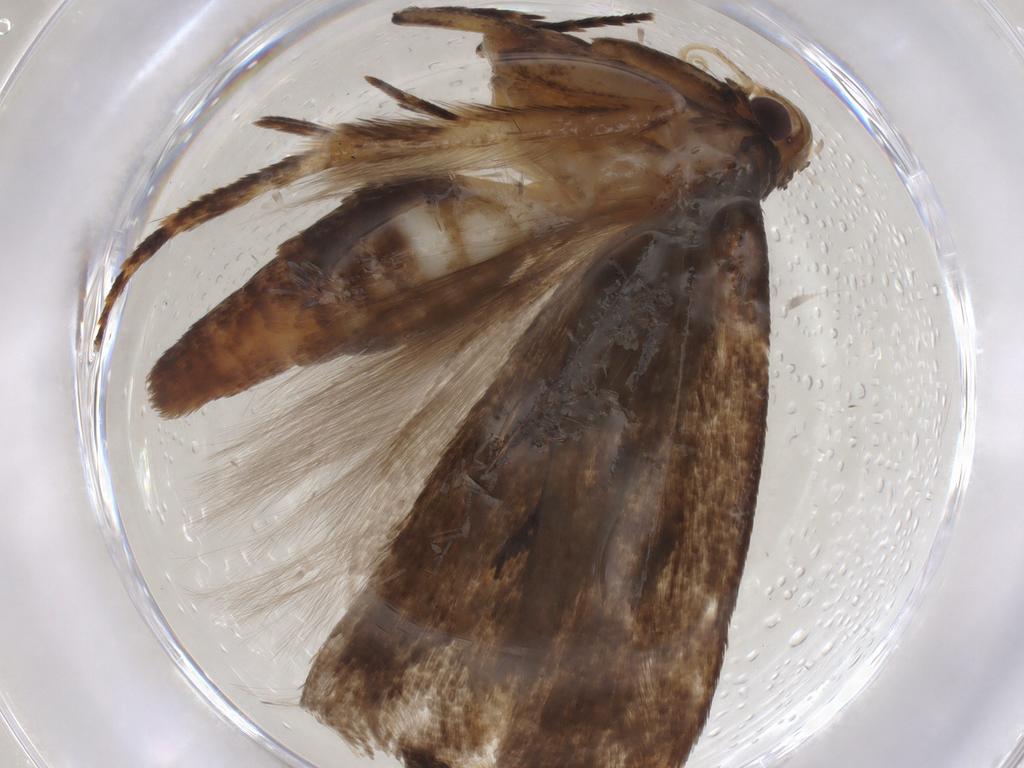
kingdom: Animalia
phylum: Arthropoda
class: Insecta
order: Lepidoptera
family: Gelechiidae
